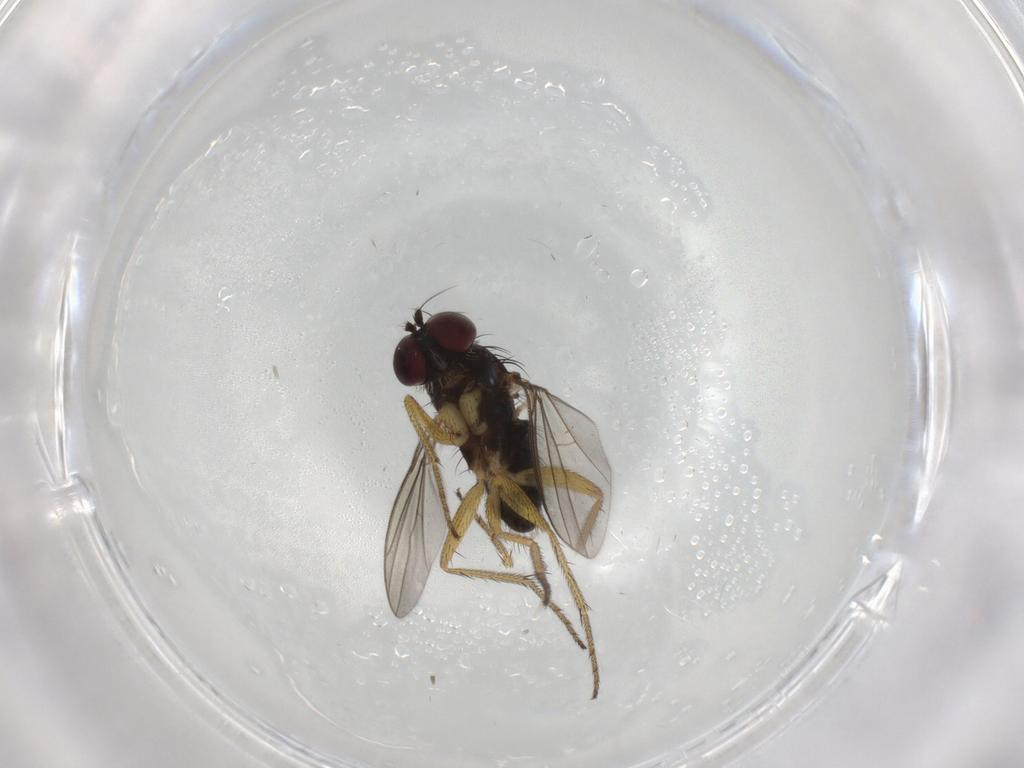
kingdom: Animalia
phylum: Arthropoda
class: Insecta
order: Diptera
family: Dolichopodidae
